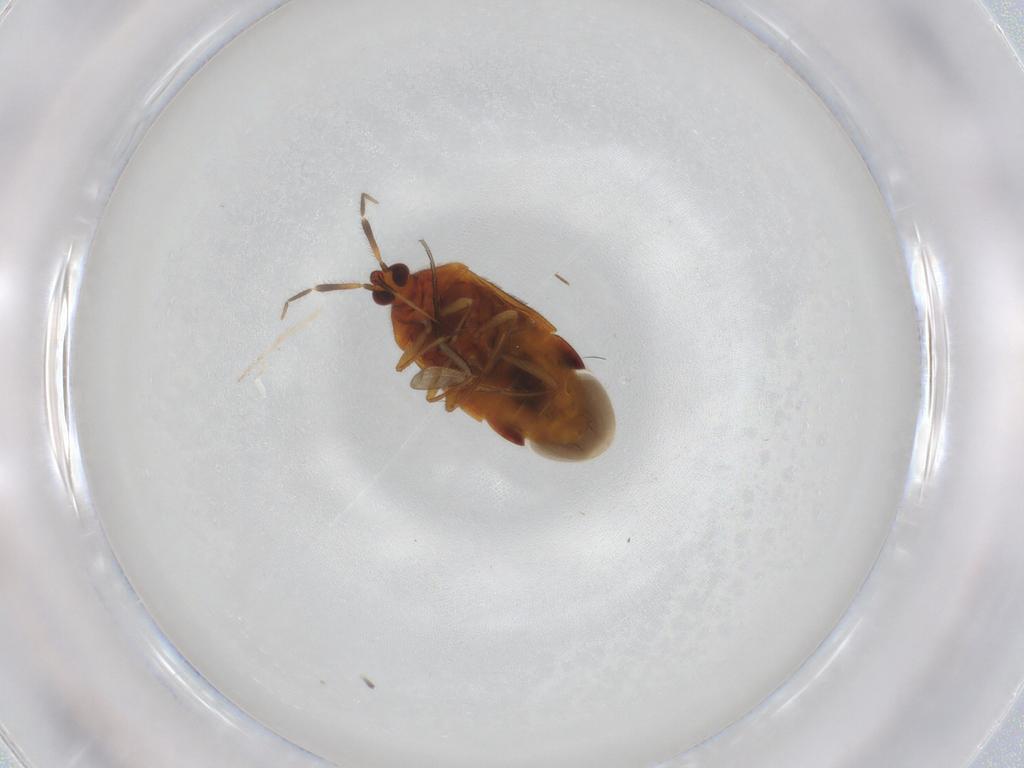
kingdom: Animalia
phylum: Arthropoda
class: Insecta
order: Hemiptera
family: Anthocoridae
